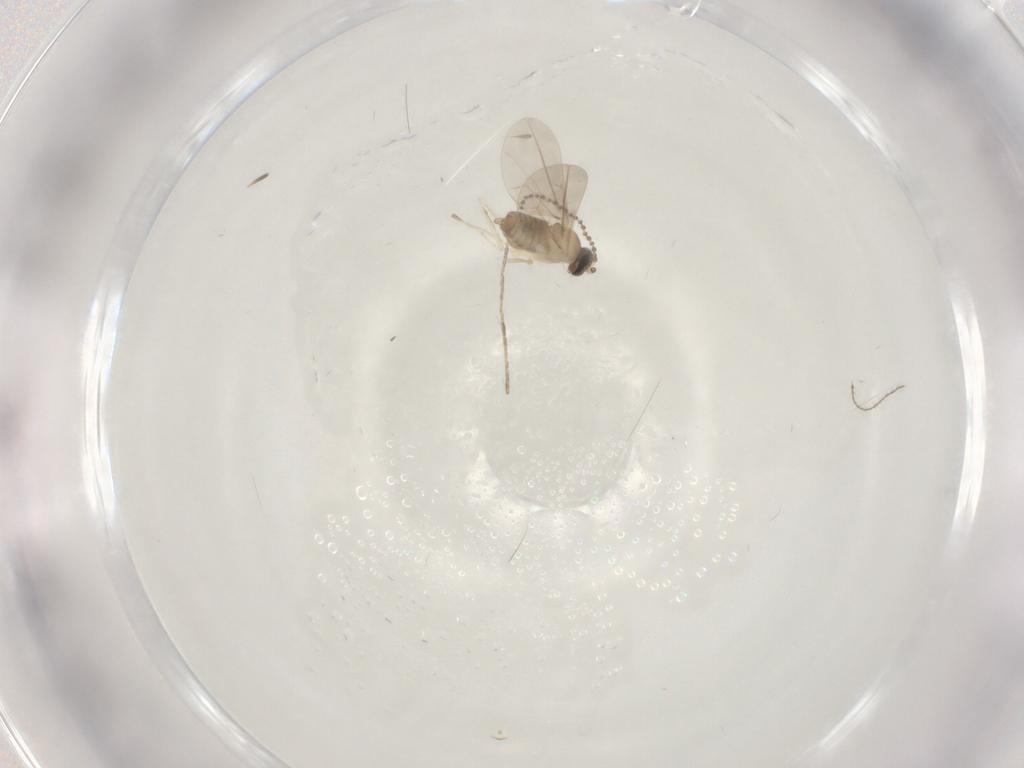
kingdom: Animalia
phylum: Arthropoda
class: Insecta
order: Diptera
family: Cecidomyiidae
